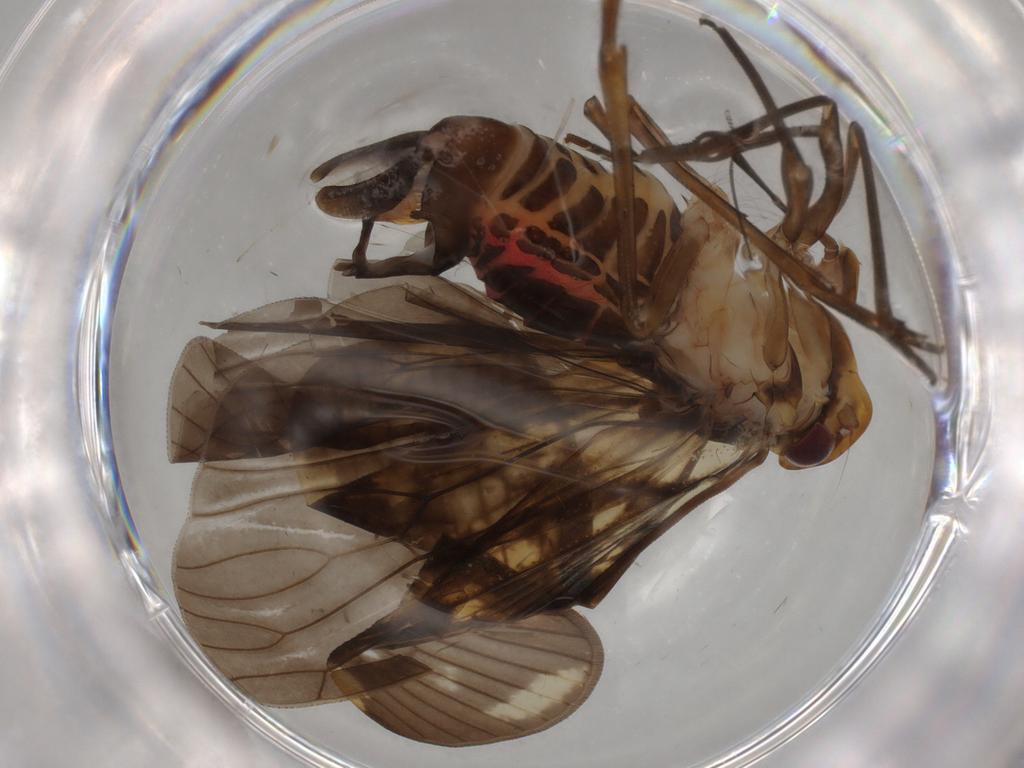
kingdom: Animalia
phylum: Arthropoda
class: Insecta
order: Hemiptera
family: Cixiidae
